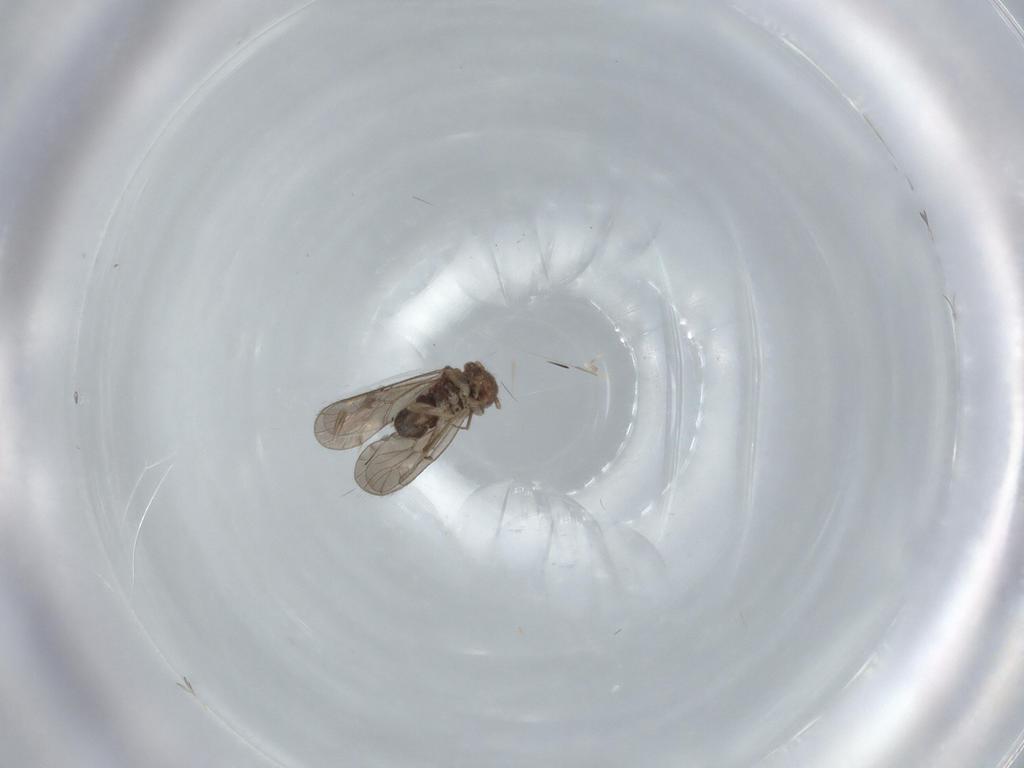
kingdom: Animalia
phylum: Arthropoda
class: Insecta
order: Psocodea
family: Ectopsocidae
